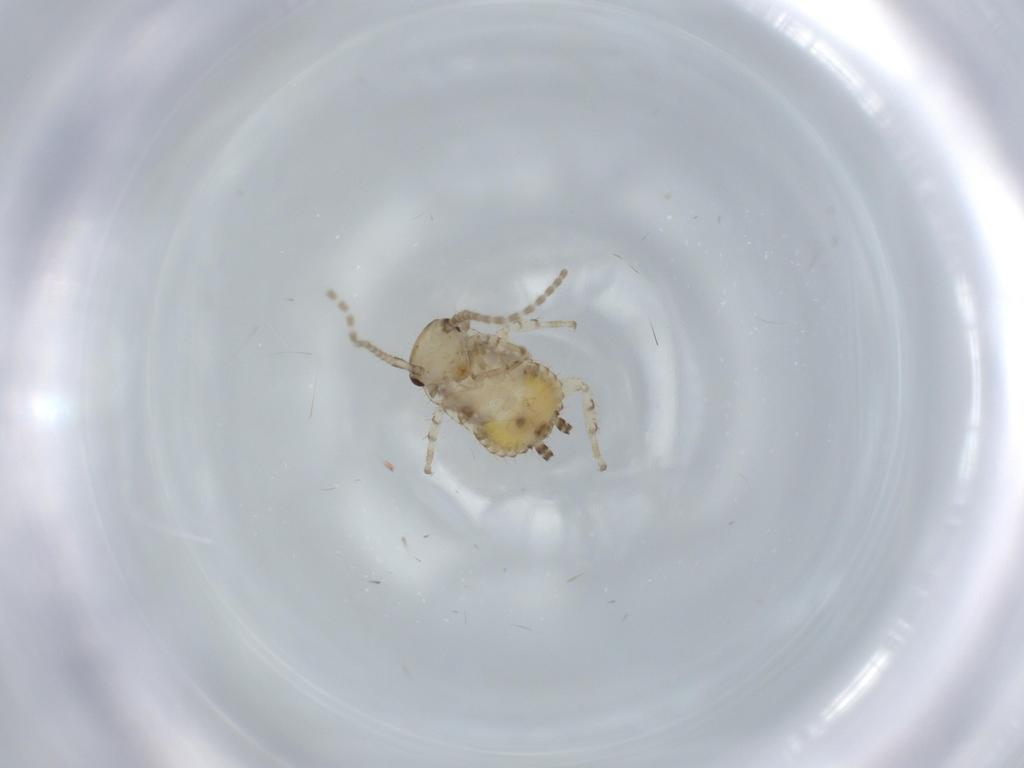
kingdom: Animalia
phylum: Arthropoda
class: Insecta
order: Blattodea
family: Ectobiidae
